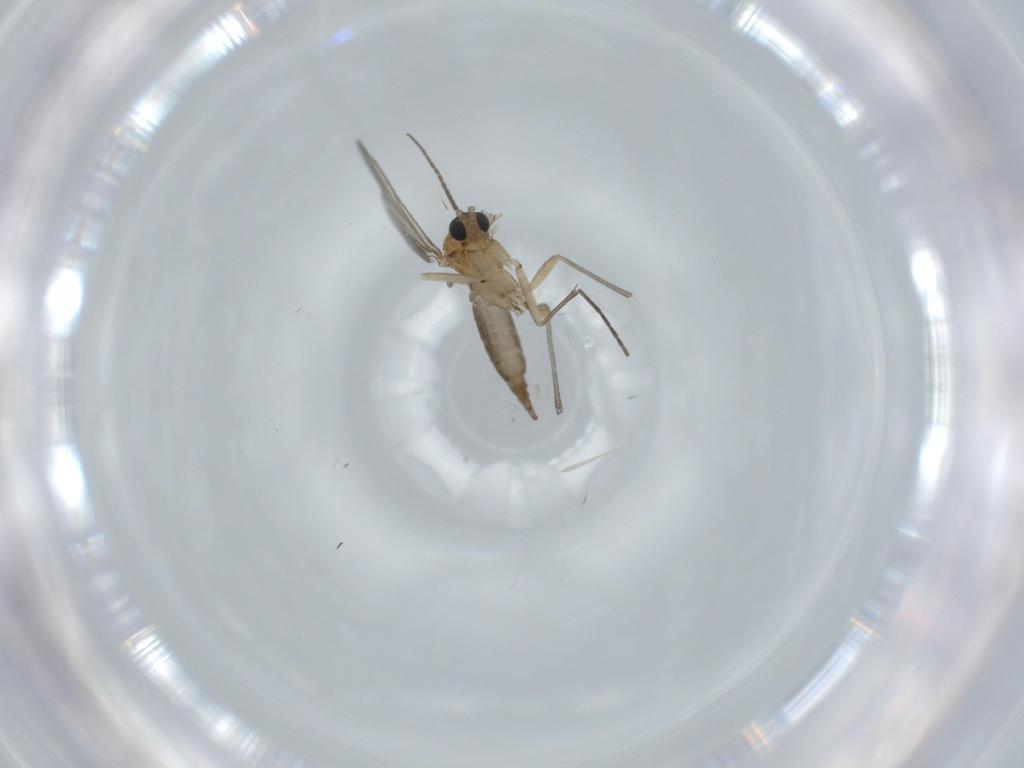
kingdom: Animalia
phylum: Arthropoda
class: Insecta
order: Diptera
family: Sciaridae
